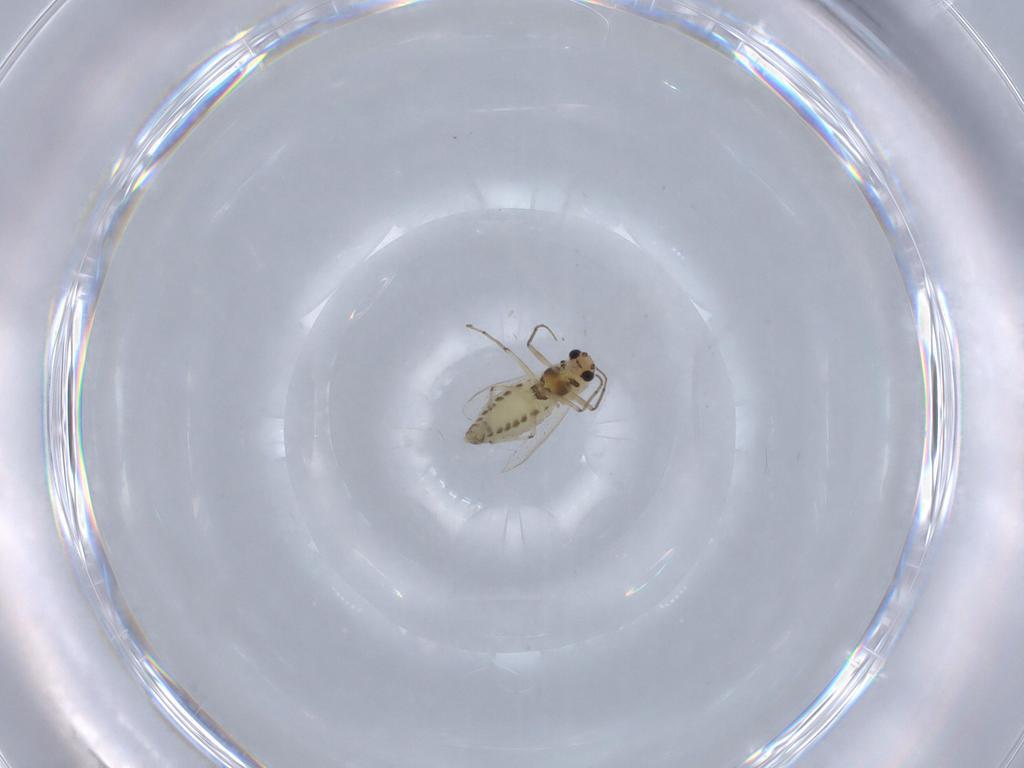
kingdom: Animalia
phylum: Arthropoda
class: Insecta
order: Diptera
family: Chironomidae
